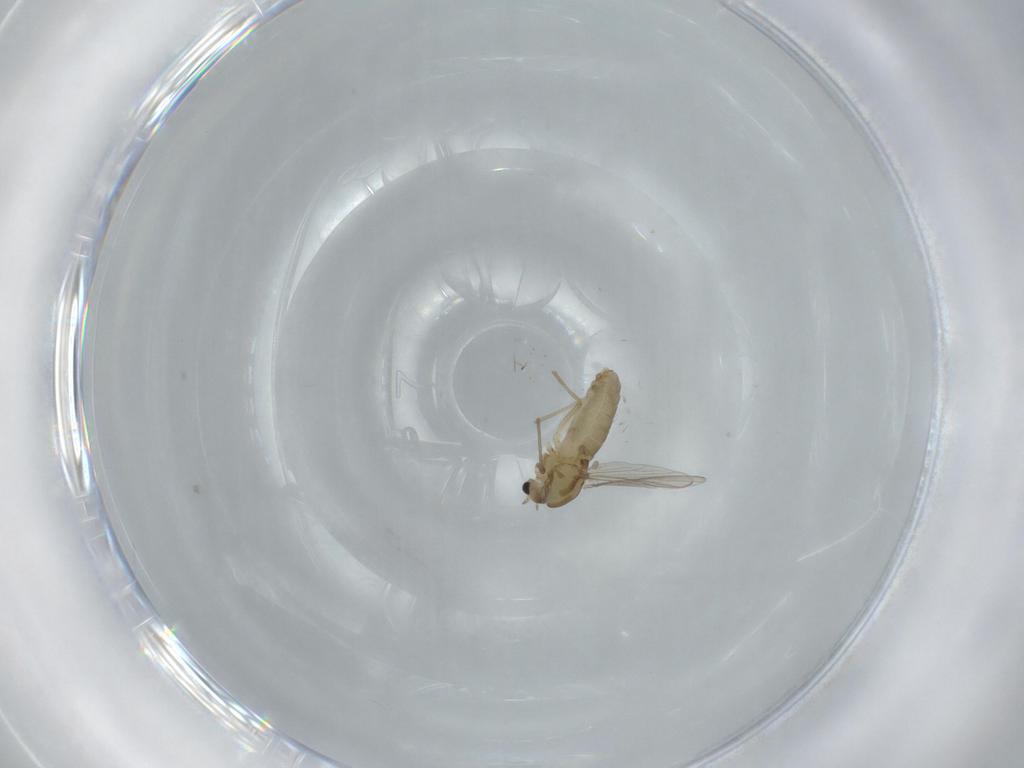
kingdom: Animalia
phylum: Arthropoda
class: Insecta
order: Diptera
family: Chironomidae
